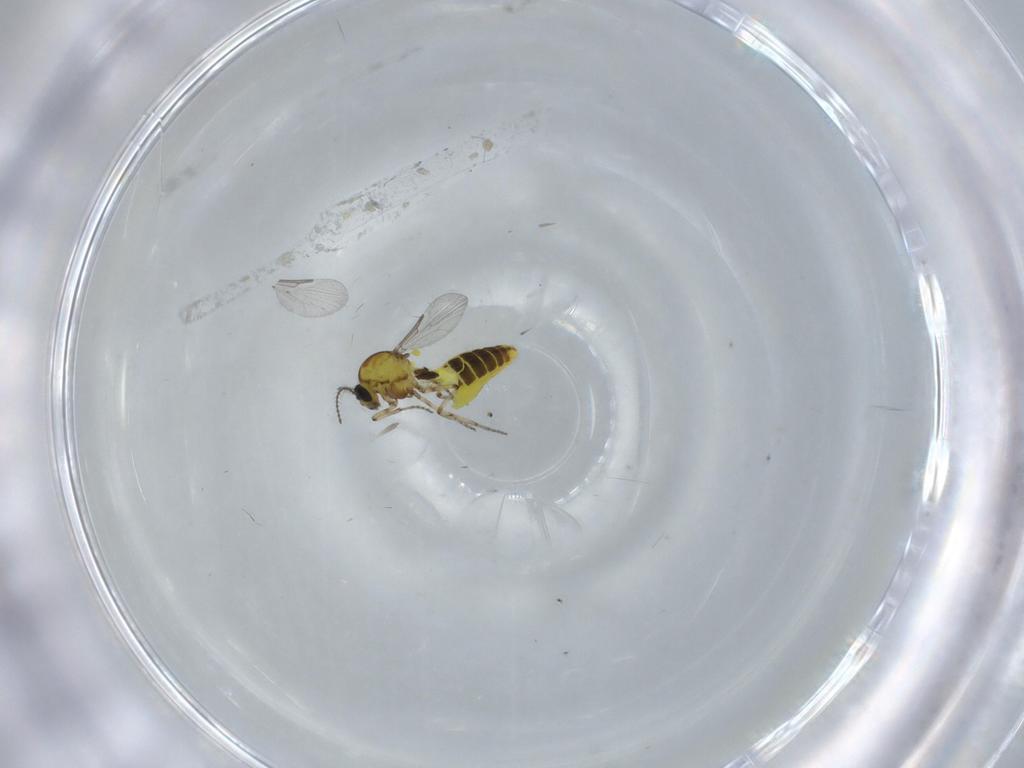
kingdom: Animalia
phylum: Arthropoda
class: Insecta
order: Diptera
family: Ceratopogonidae
